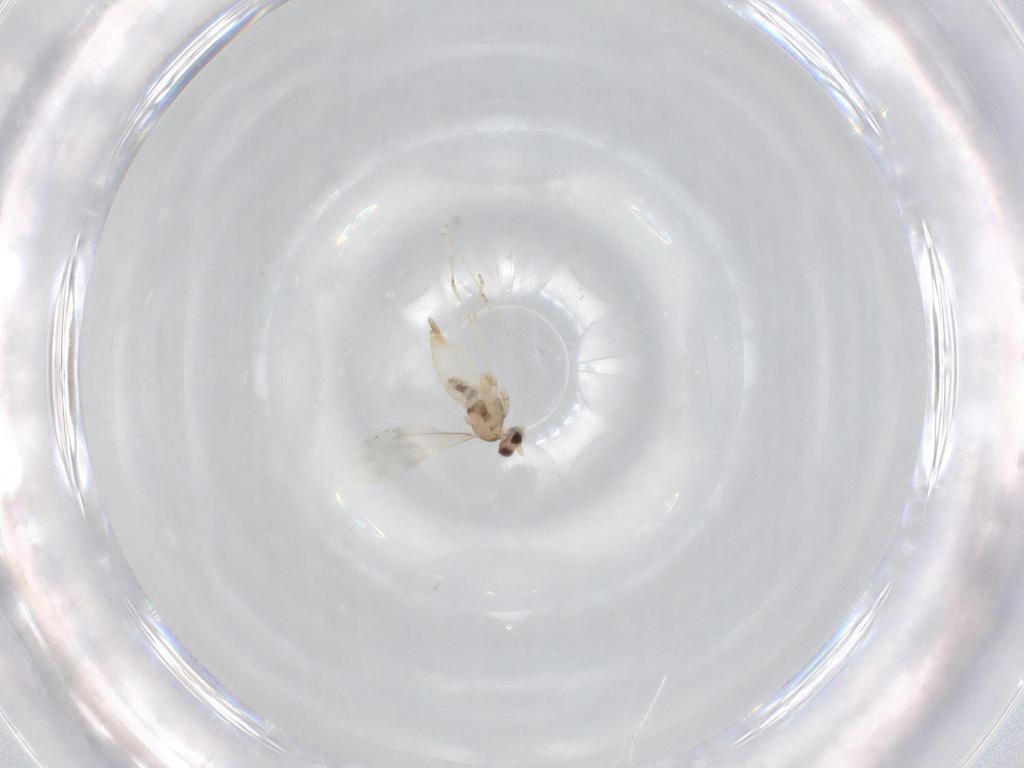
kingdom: Animalia
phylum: Arthropoda
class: Insecta
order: Diptera
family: Cecidomyiidae
